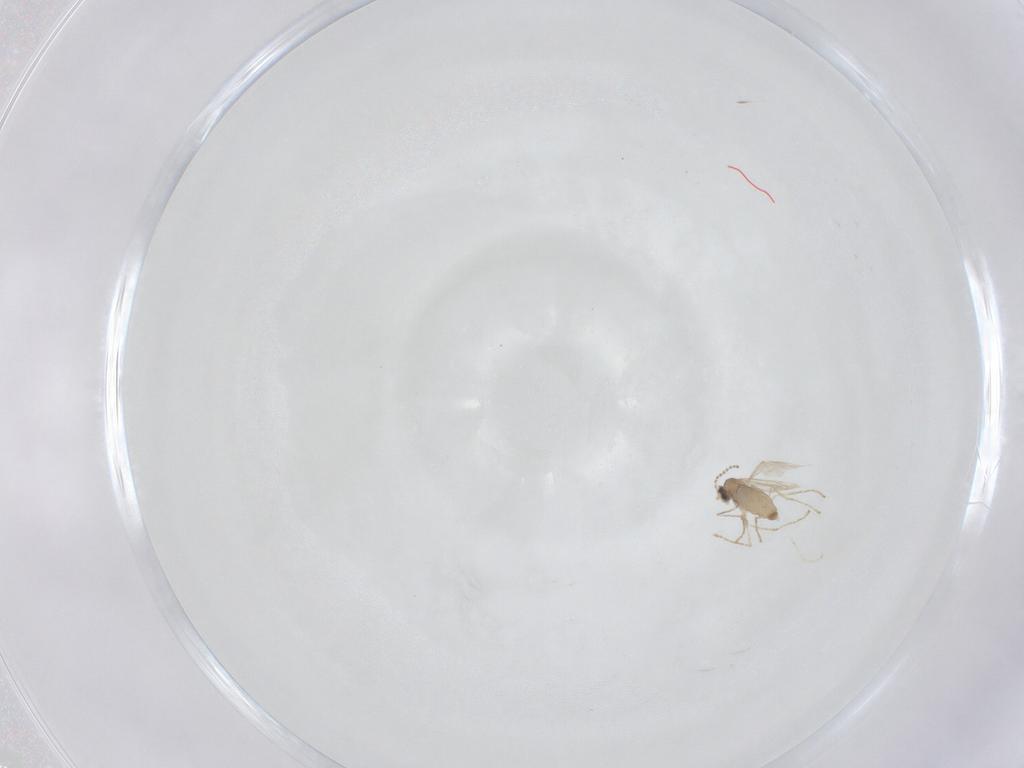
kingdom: Animalia
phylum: Arthropoda
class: Insecta
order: Diptera
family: Cecidomyiidae
